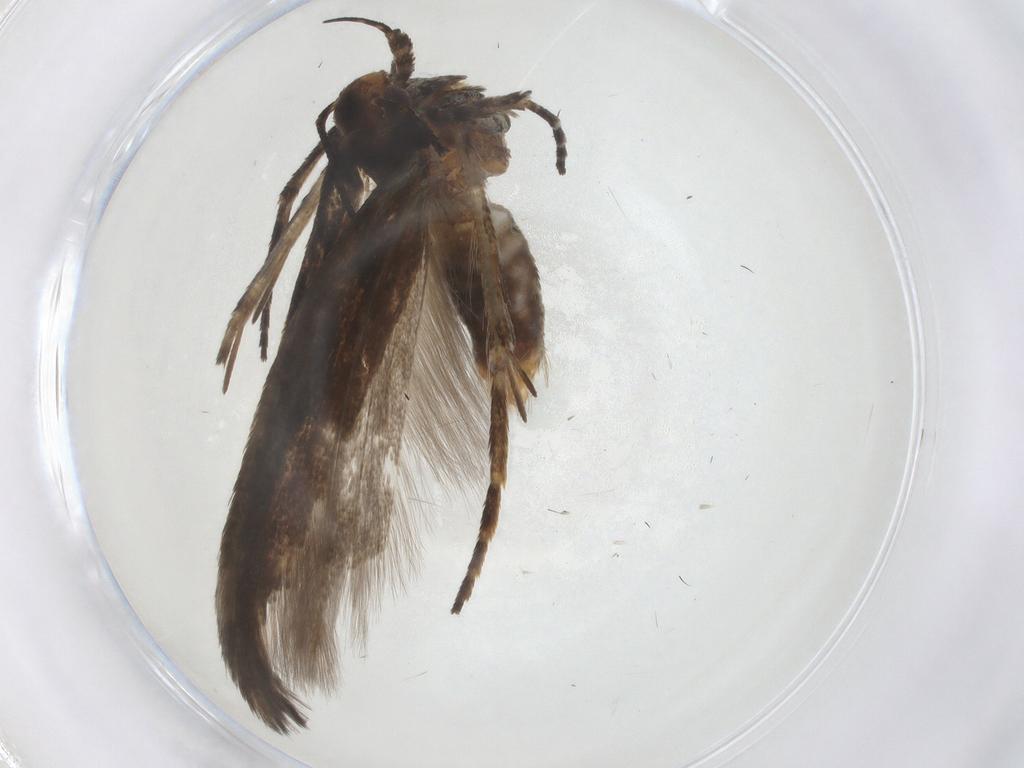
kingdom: Animalia
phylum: Arthropoda
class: Insecta
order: Lepidoptera
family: Gelechiidae
